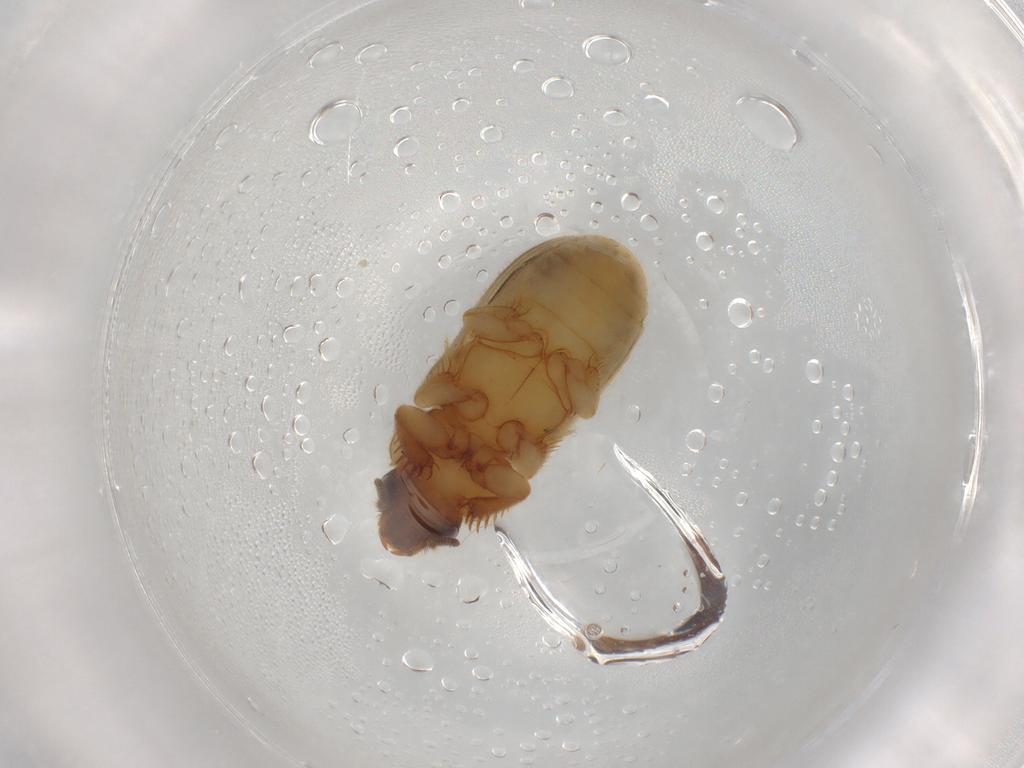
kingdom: Animalia
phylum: Arthropoda
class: Insecta
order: Coleoptera
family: Heteroceridae
